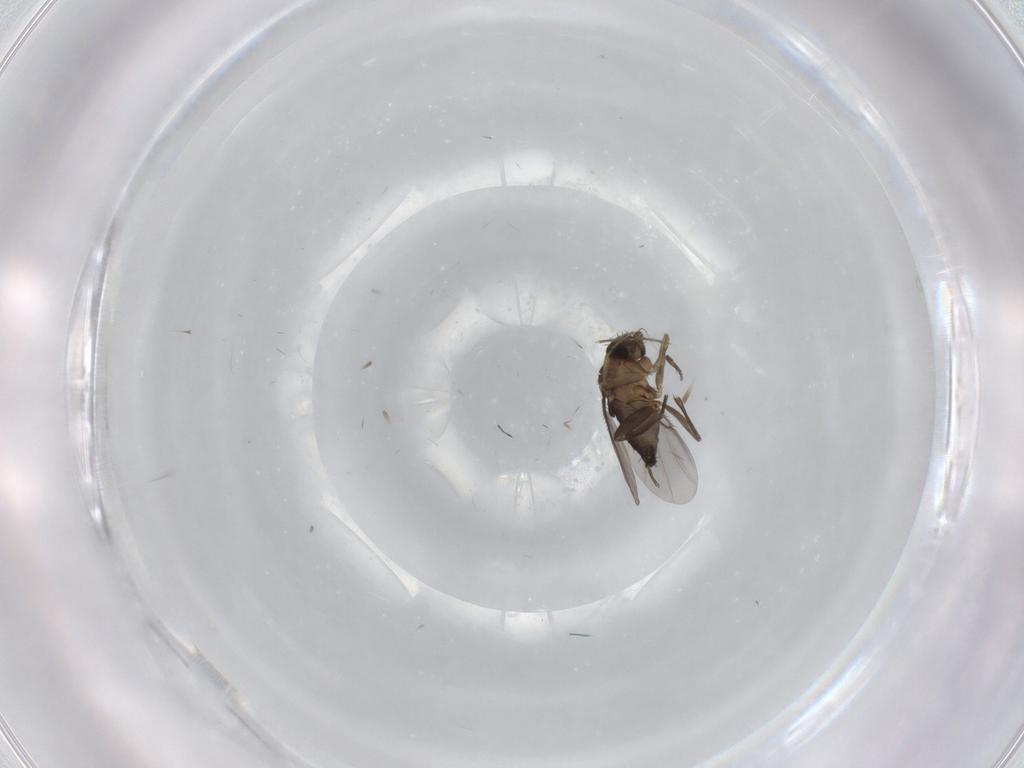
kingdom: Animalia
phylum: Arthropoda
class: Insecta
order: Diptera
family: Phoridae
